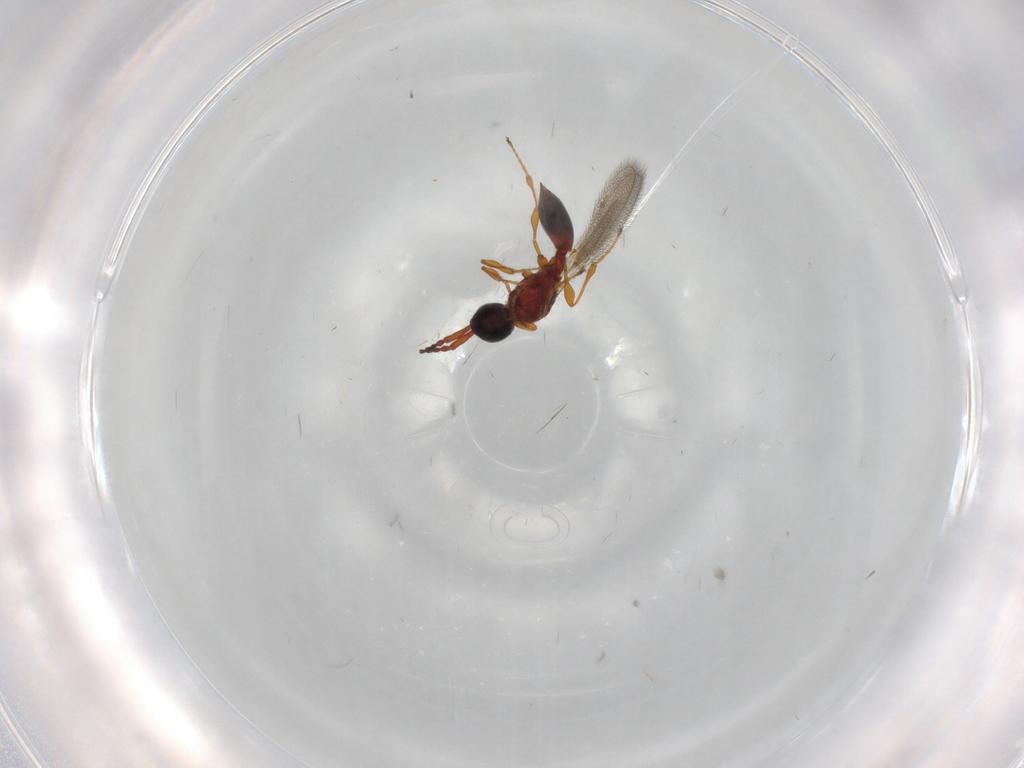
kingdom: Animalia
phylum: Arthropoda
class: Insecta
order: Hymenoptera
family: Diapriidae
